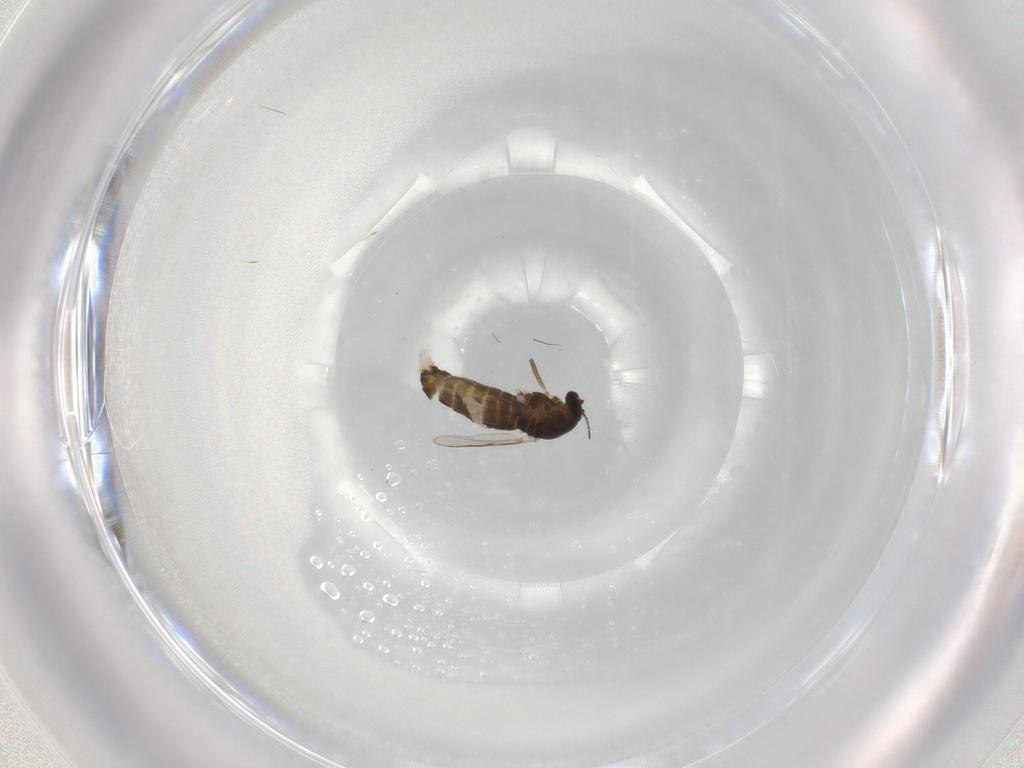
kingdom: Animalia
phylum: Arthropoda
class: Insecta
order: Diptera
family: Chironomidae
